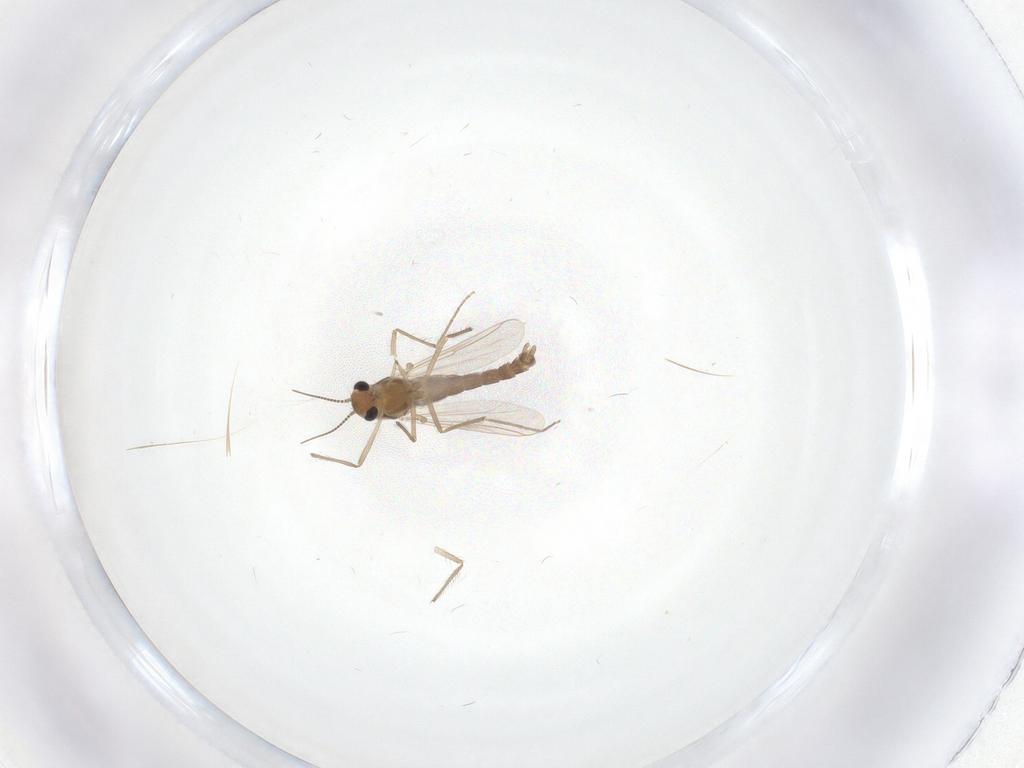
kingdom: Animalia
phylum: Arthropoda
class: Insecta
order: Diptera
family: Chironomidae
